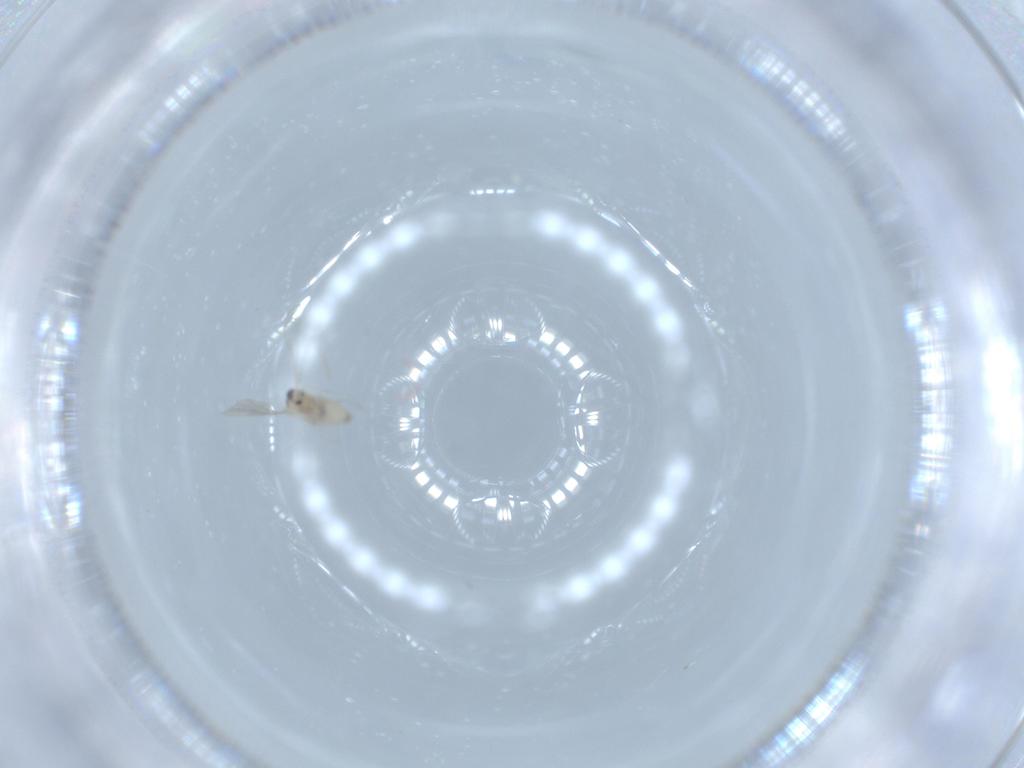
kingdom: Animalia
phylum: Arthropoda
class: Insecta
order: Diptera
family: Cecidomyiidae
